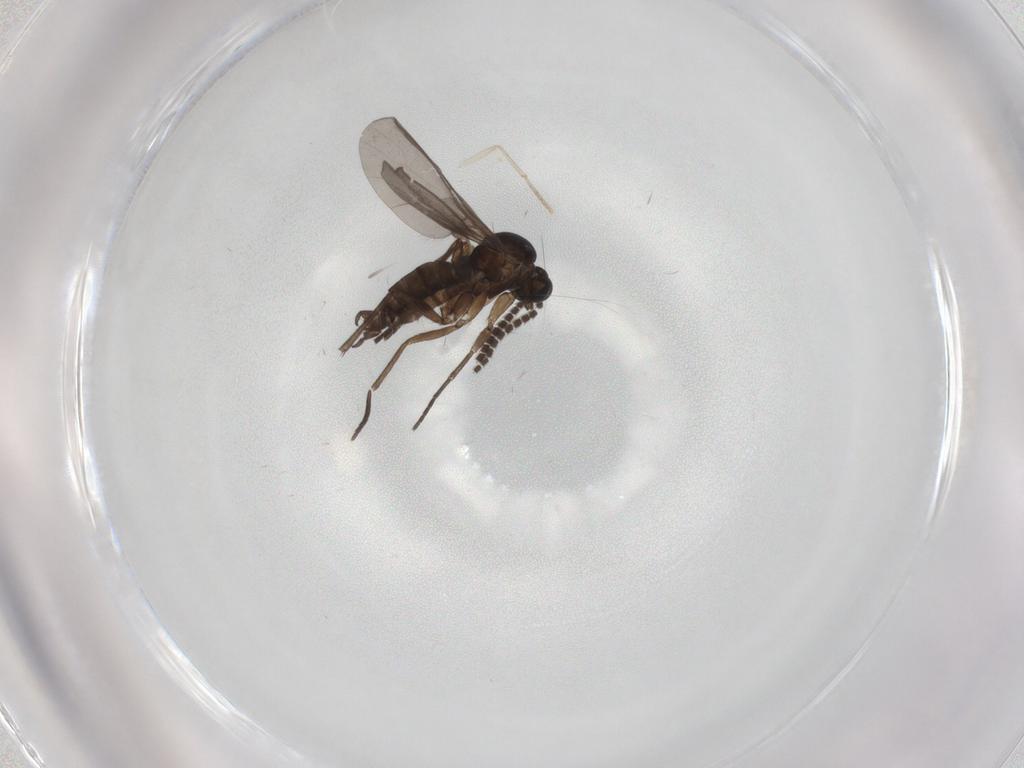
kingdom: Animalia
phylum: Arthropoda
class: Insecta
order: Diptera
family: Sciaridae
